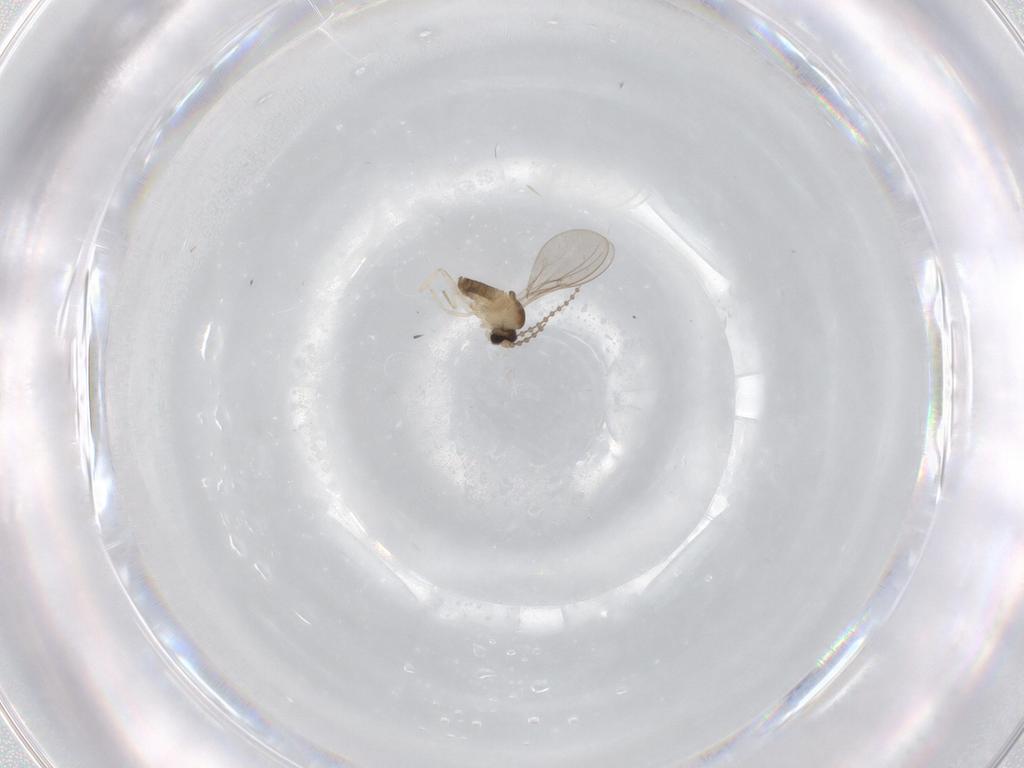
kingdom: Animalia
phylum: Arthropoda
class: Insecta
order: Diptera
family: Cecidomyiidae
